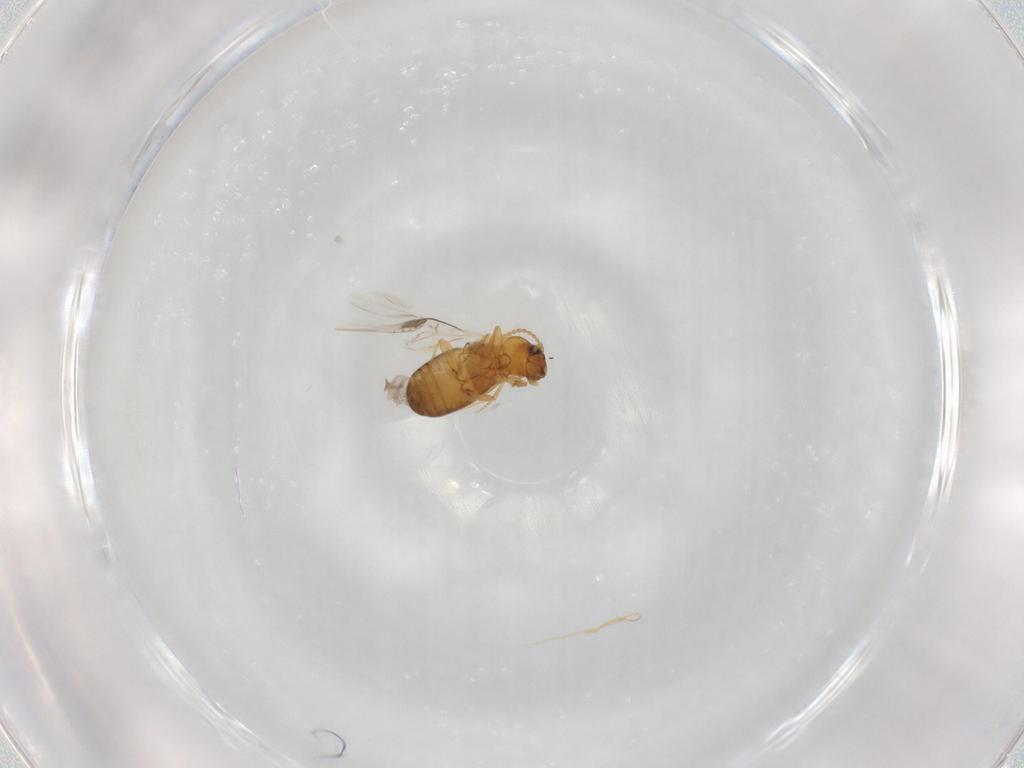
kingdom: Animalia
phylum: Arthropoda
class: Insecta
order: Coleoptera
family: Carabidae
